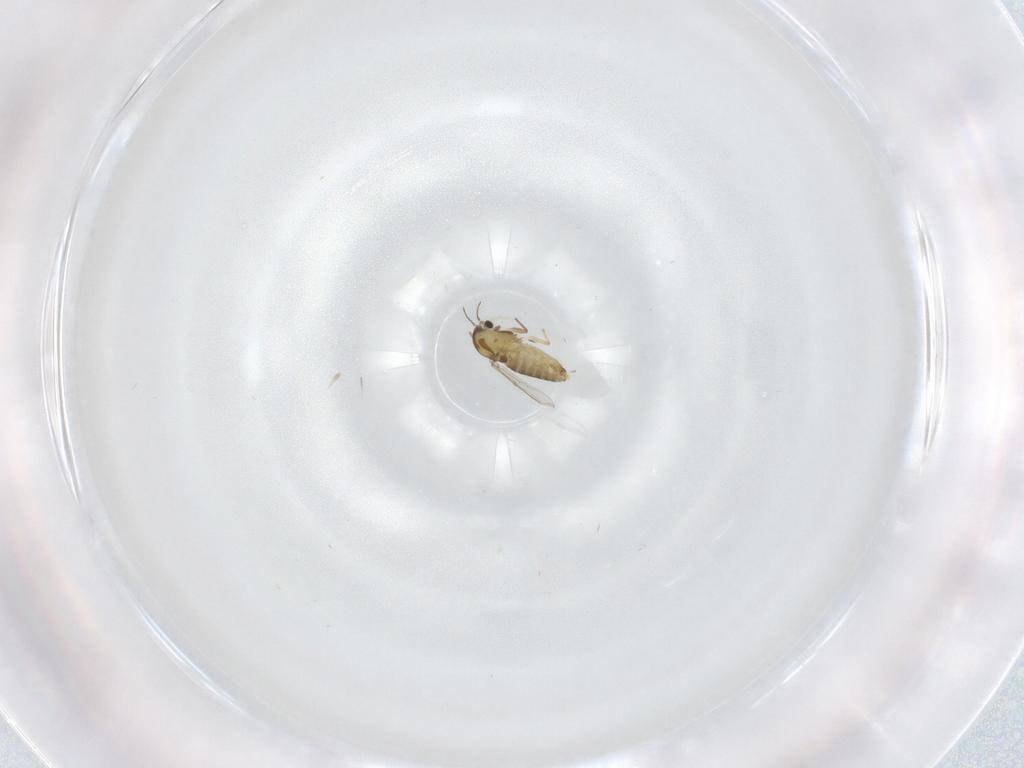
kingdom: Animalia
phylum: Arthropoda
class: Insecta
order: Diptera
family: Chironomidae
